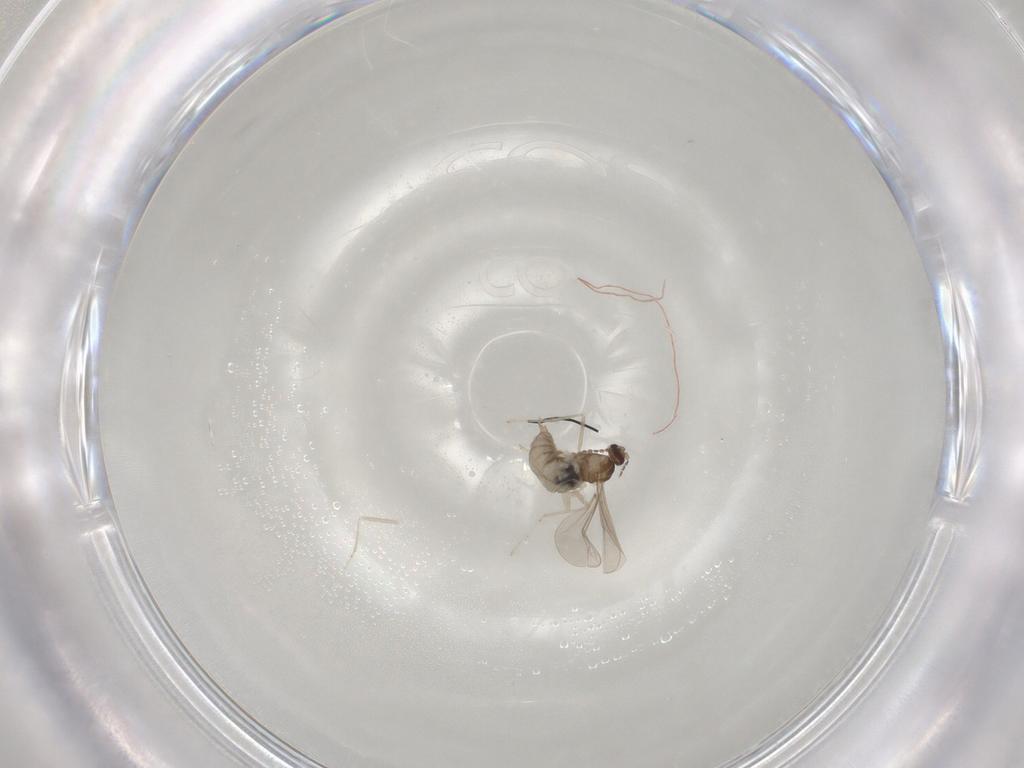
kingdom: Animalia
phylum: Arthropoda
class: Insecta
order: Diptera
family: Cecidomyiidae
